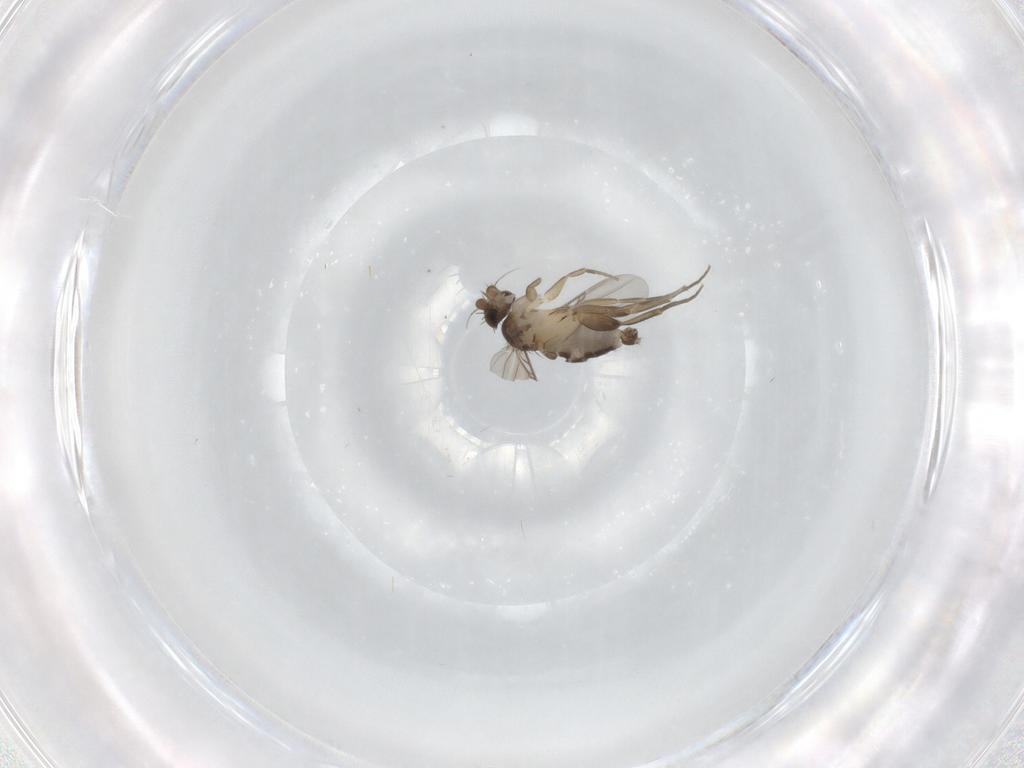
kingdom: Animalia
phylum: Arthropoda
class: Insecta
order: Diptera
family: Phoridae
